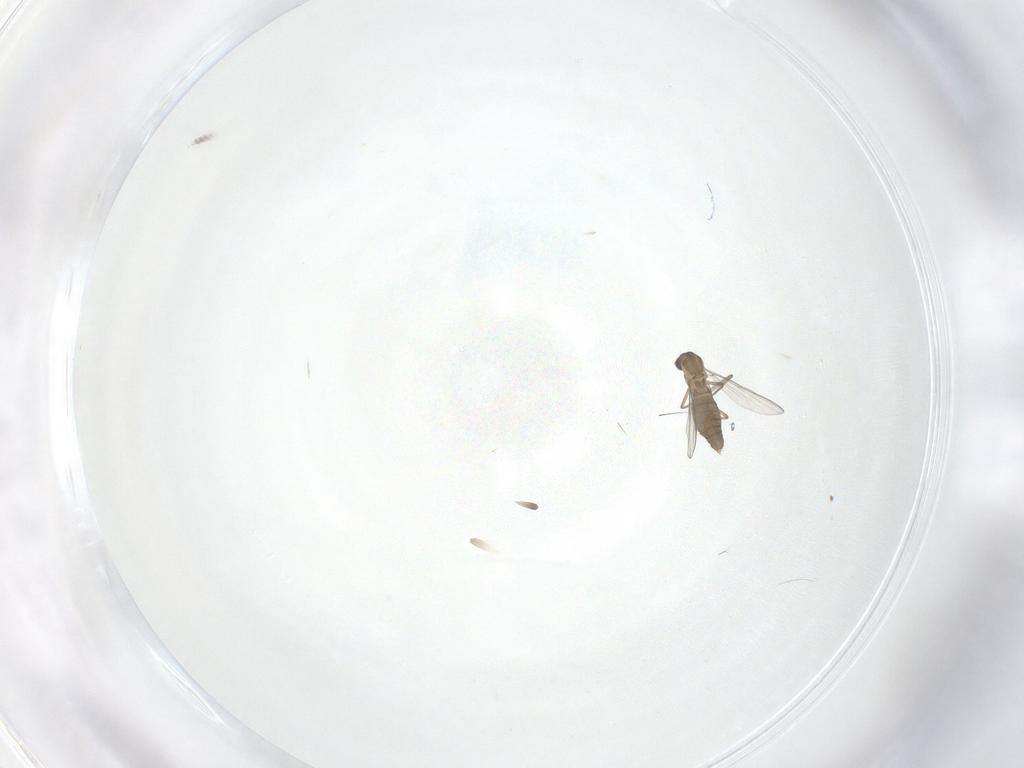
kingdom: Animalia
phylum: Arthropoda
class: Insecta
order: Diptera
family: Chironomidae
